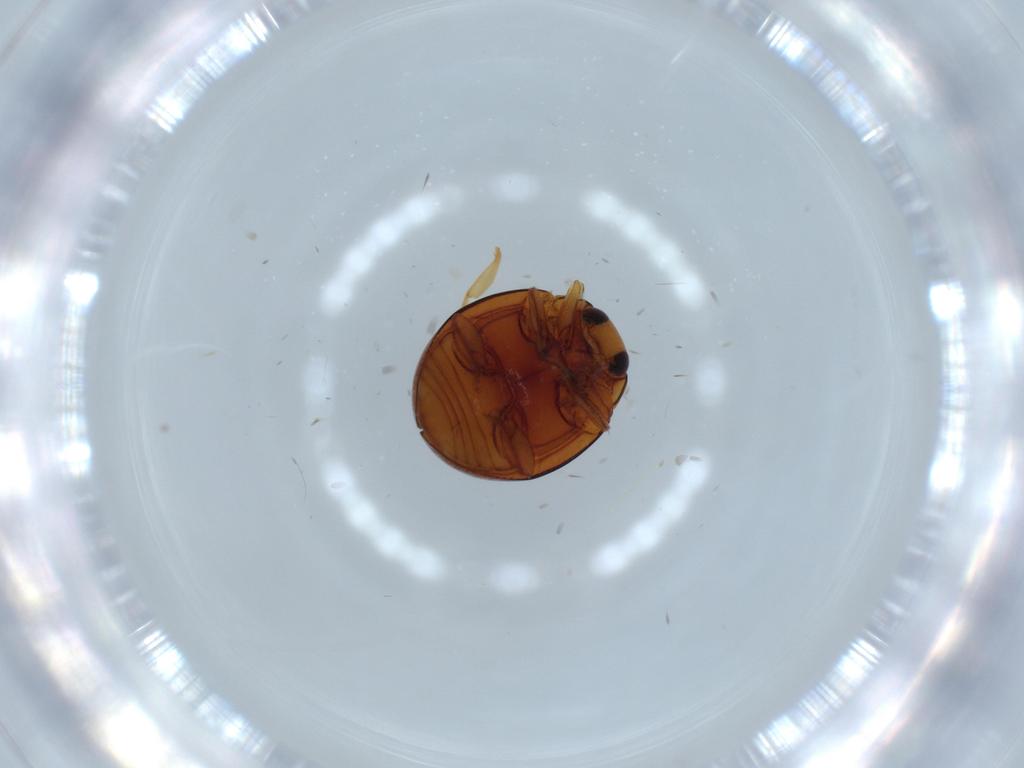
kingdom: Animalia
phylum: Arthropoda
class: Insecta
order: Coleoptera
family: Coccinellidae
